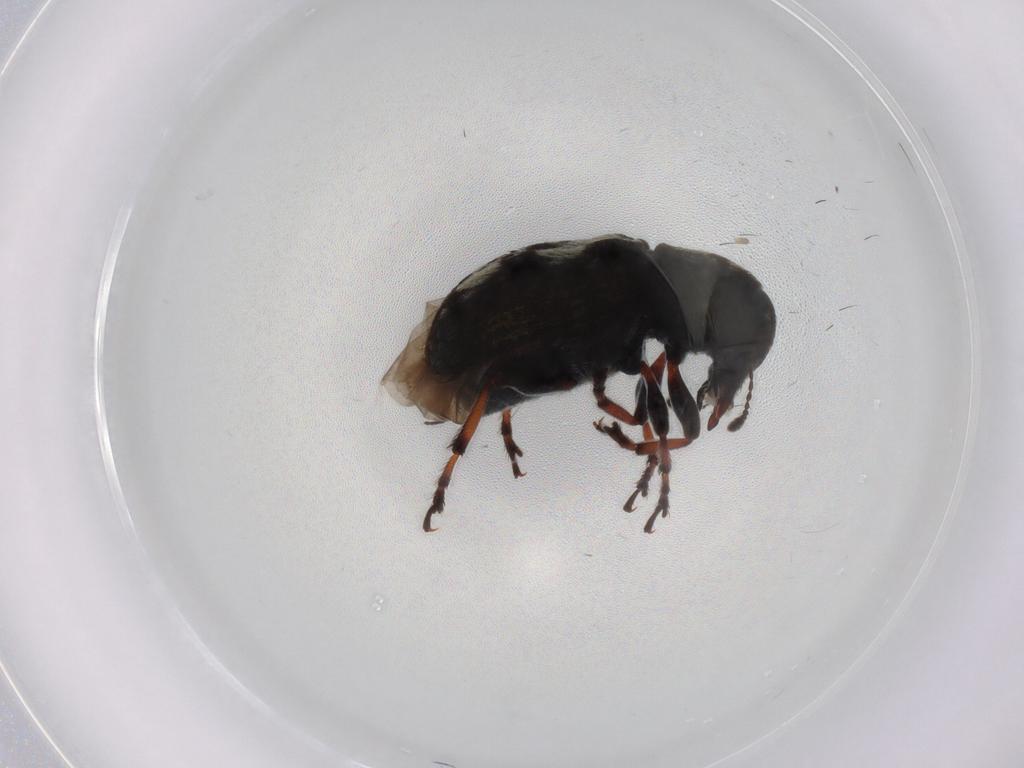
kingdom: Animalia
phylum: Arthropoda
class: Insecta
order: Coleoptera
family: Anthribidae
